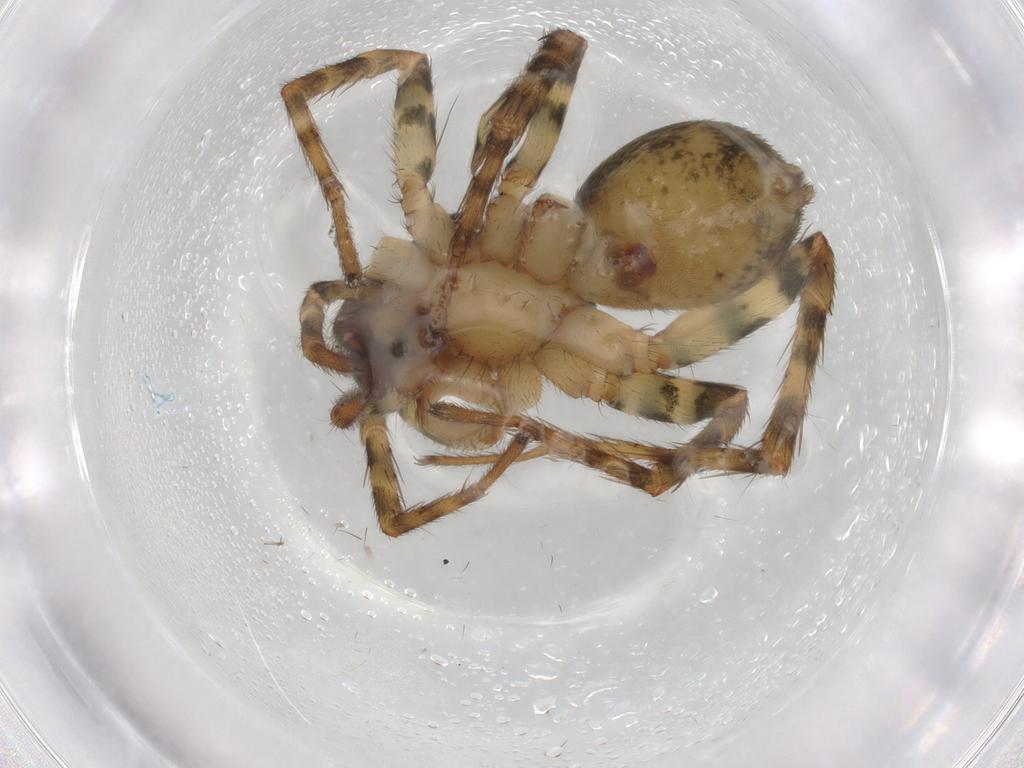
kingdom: Animalia
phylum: Arthropoda
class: Arachnida
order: Araneae
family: Lycosidae
